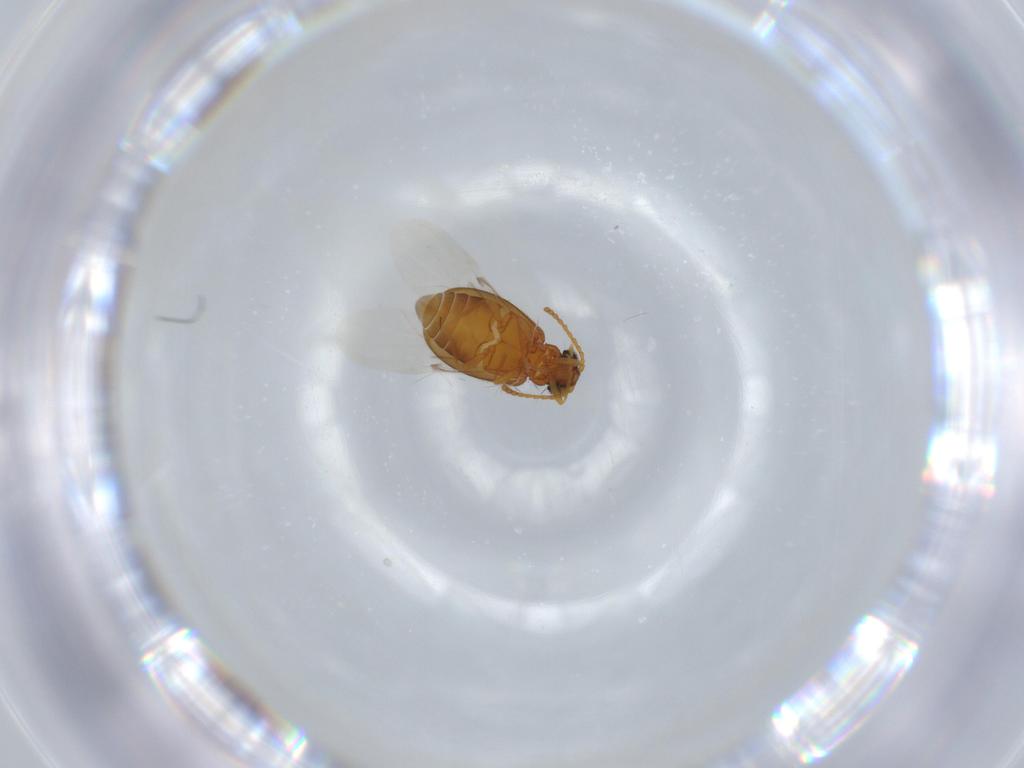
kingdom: Animalia
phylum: Arthropoda
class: Insecta
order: Coleoptera
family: Aderidae
